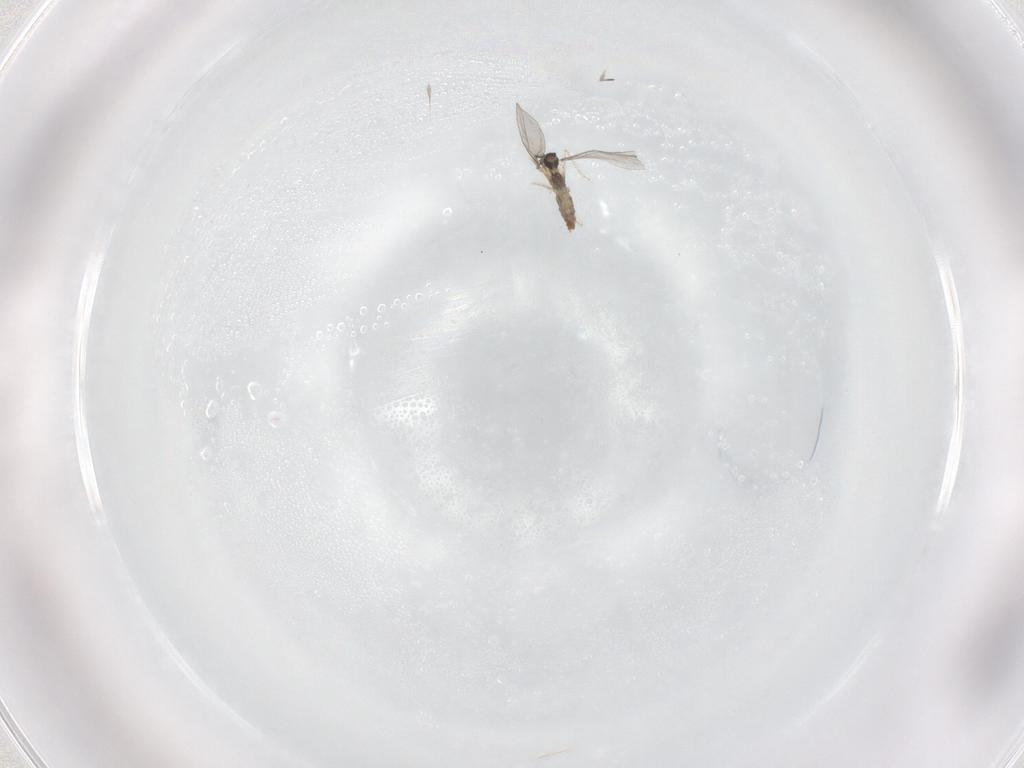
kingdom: Animalia
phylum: Arthropoda
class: Insecta
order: Diptera
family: Cecidomyiidae
